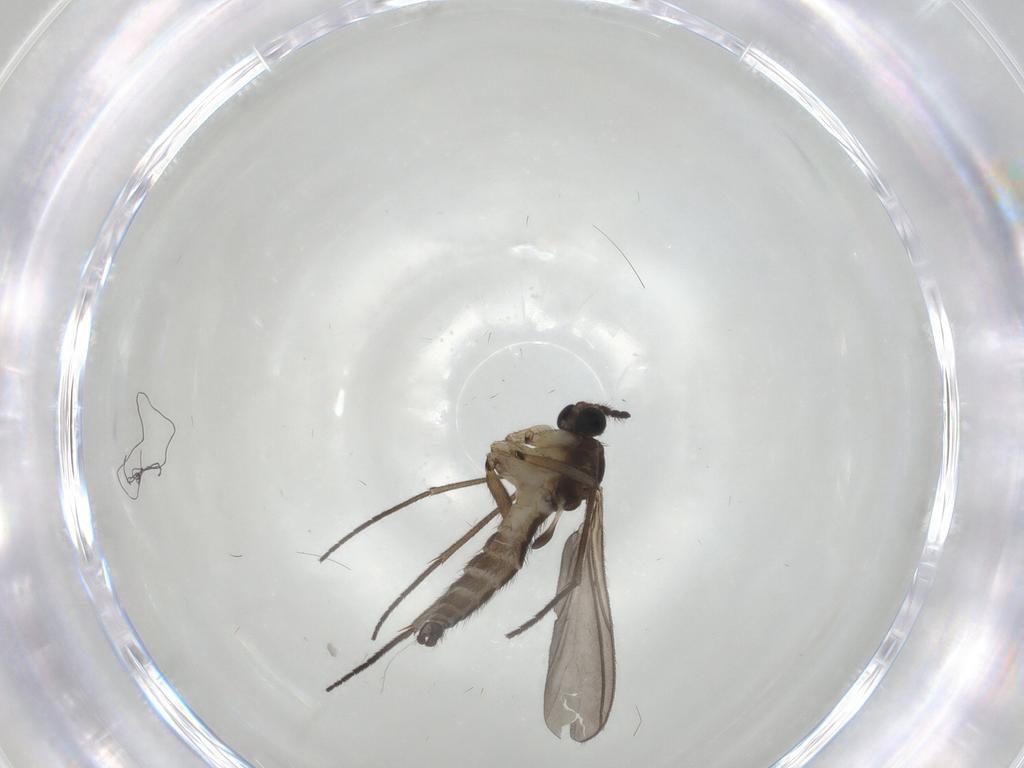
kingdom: Animalia
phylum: Arthropoda
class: Insecta
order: Diptera
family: Sciaridae
